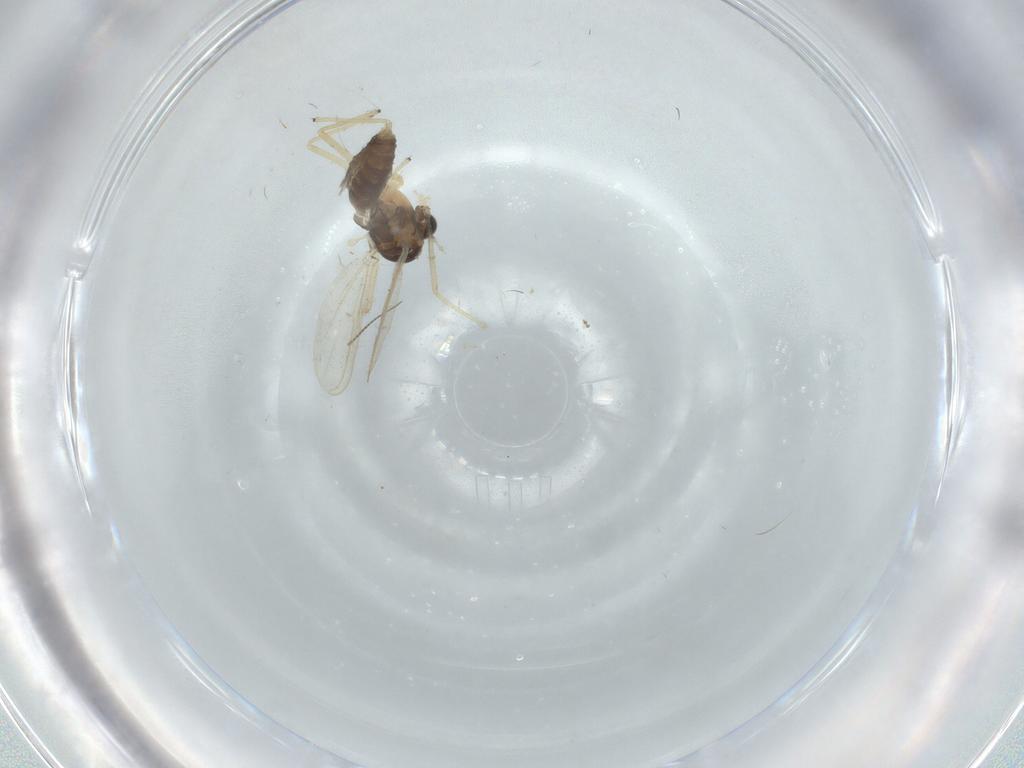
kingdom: Animalia
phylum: Arthropoda
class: Insecta
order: Diptera
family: Chironomidae
